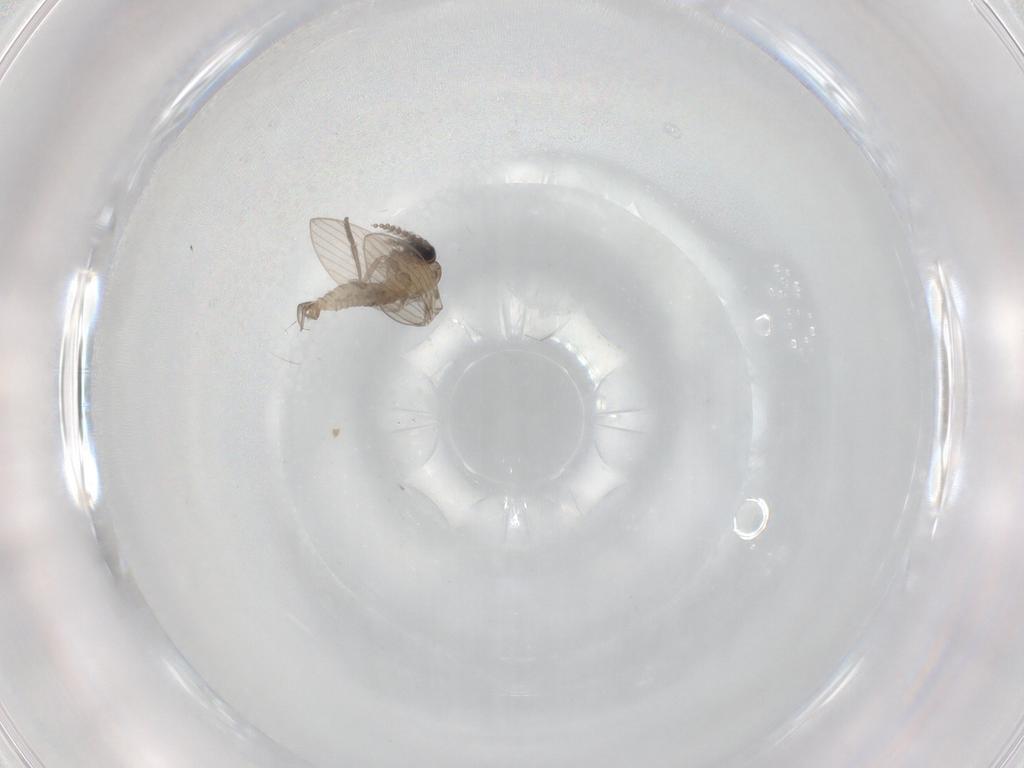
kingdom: Animalia
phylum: Arthropoda
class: Insecta
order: Diptera
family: Psychodidae
